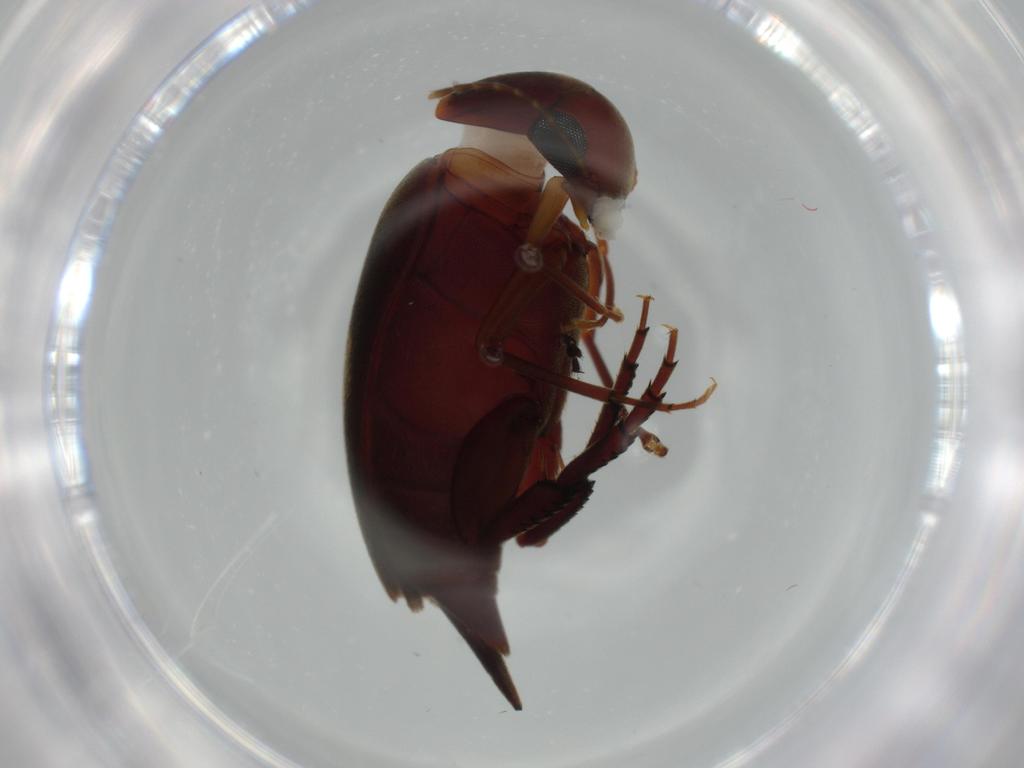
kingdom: Animalia
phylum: Arthropoda
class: Insecta
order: Coleoptera
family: Mordellidae
